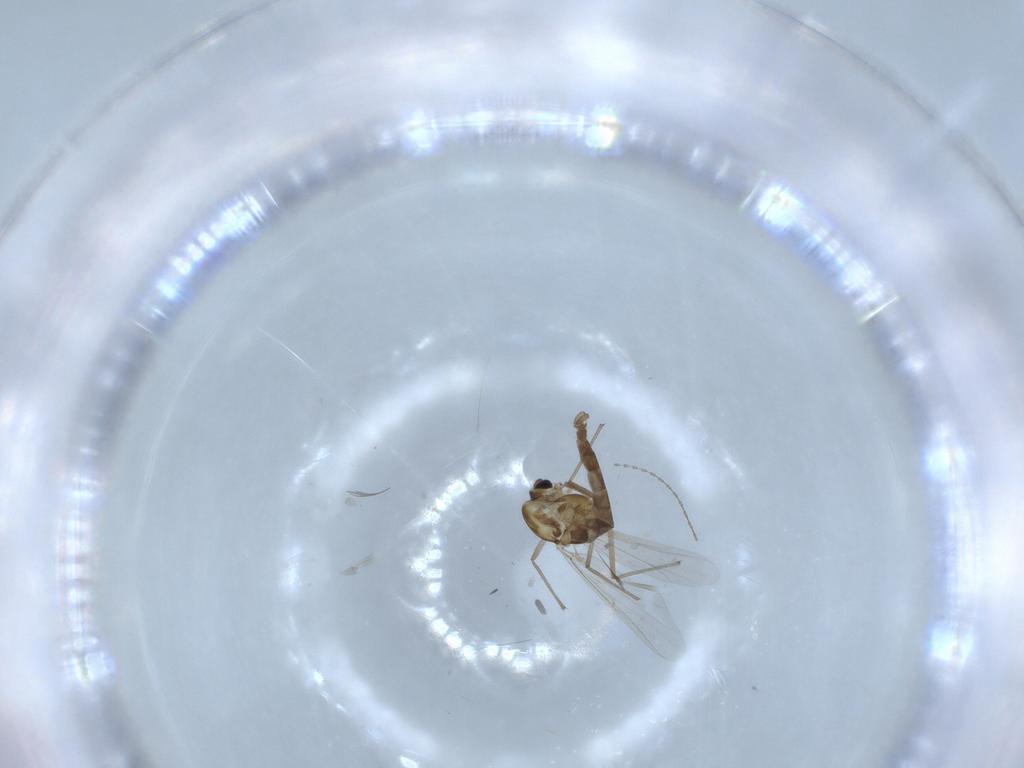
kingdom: Animalia
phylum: Arthropoda
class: Insecta
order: Diptera
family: Chironomidae
